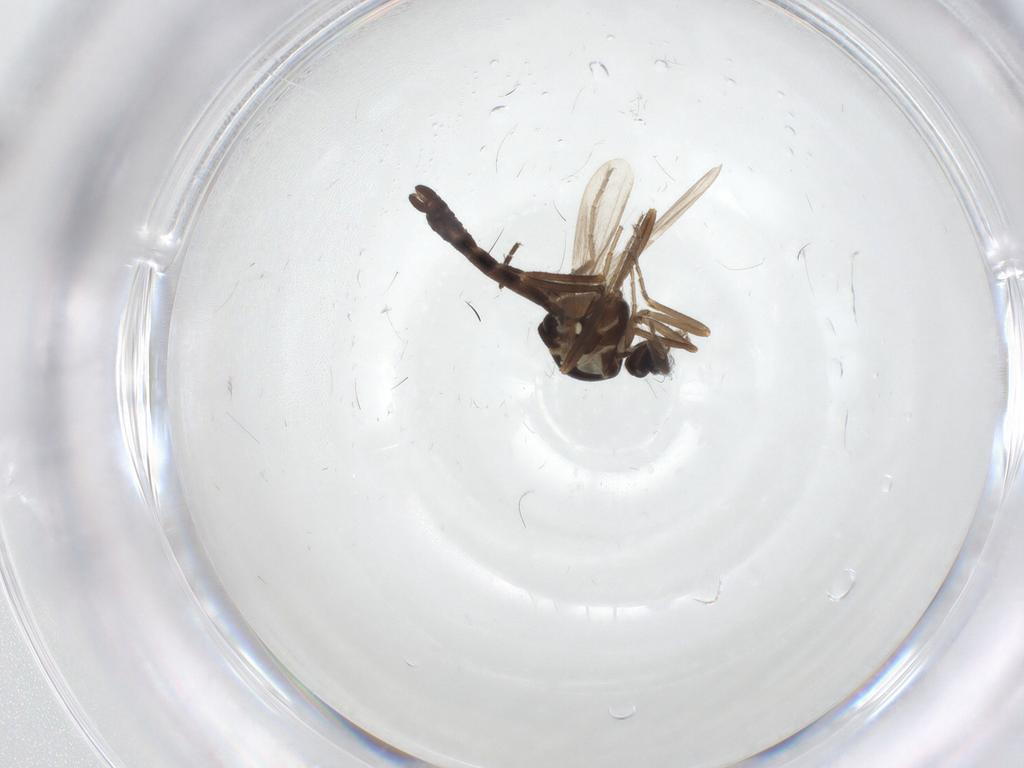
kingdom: Animalia
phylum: Arthropoda
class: Insecta
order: Diptera
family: Ceratopogonidae
